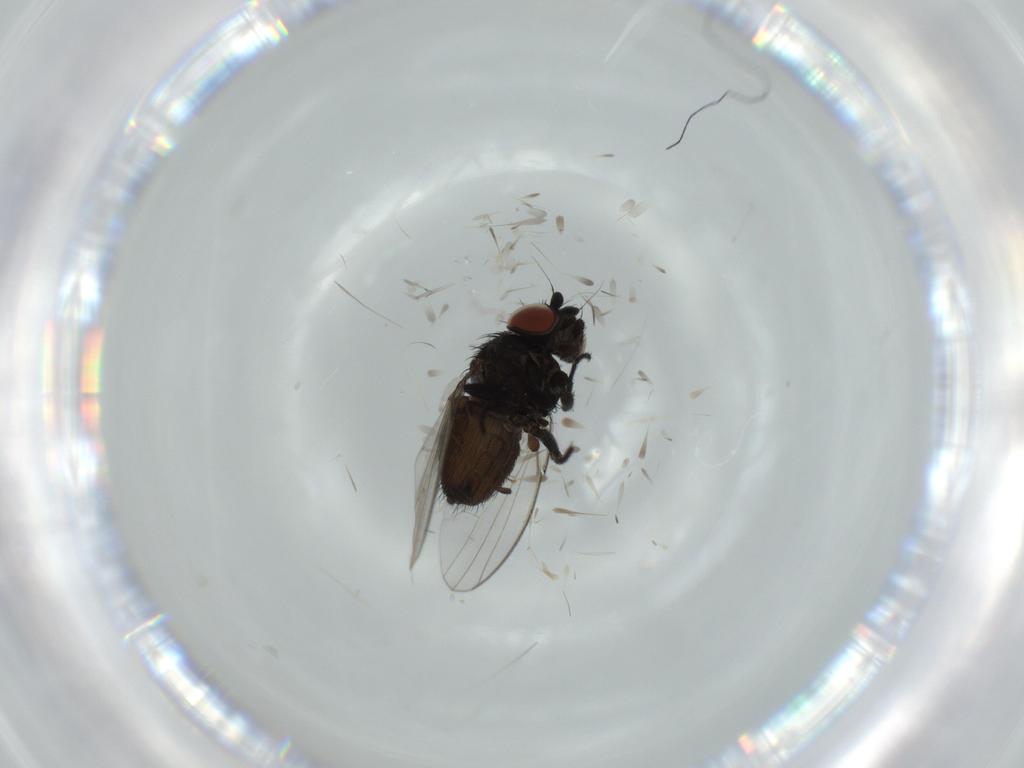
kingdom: Animalia
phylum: Arthropoda
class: Insecta
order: Diptera
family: Milichiidae
